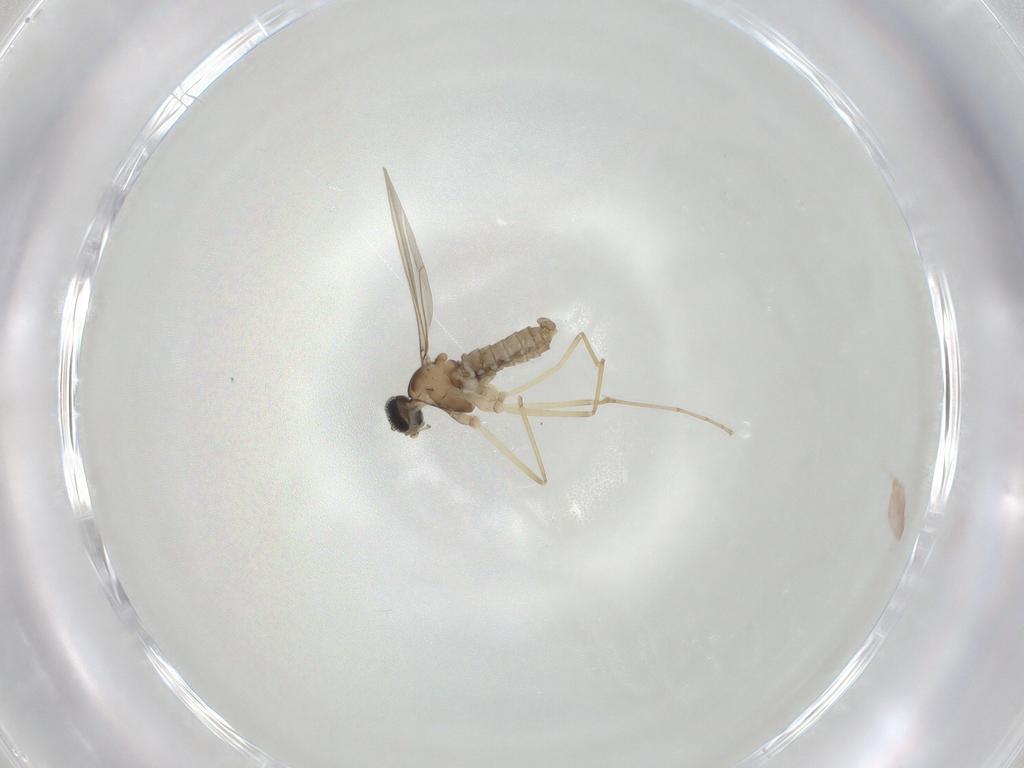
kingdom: Animalia
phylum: Arthropoda
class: Insecta
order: Diptera
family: Cecidomyiidae
